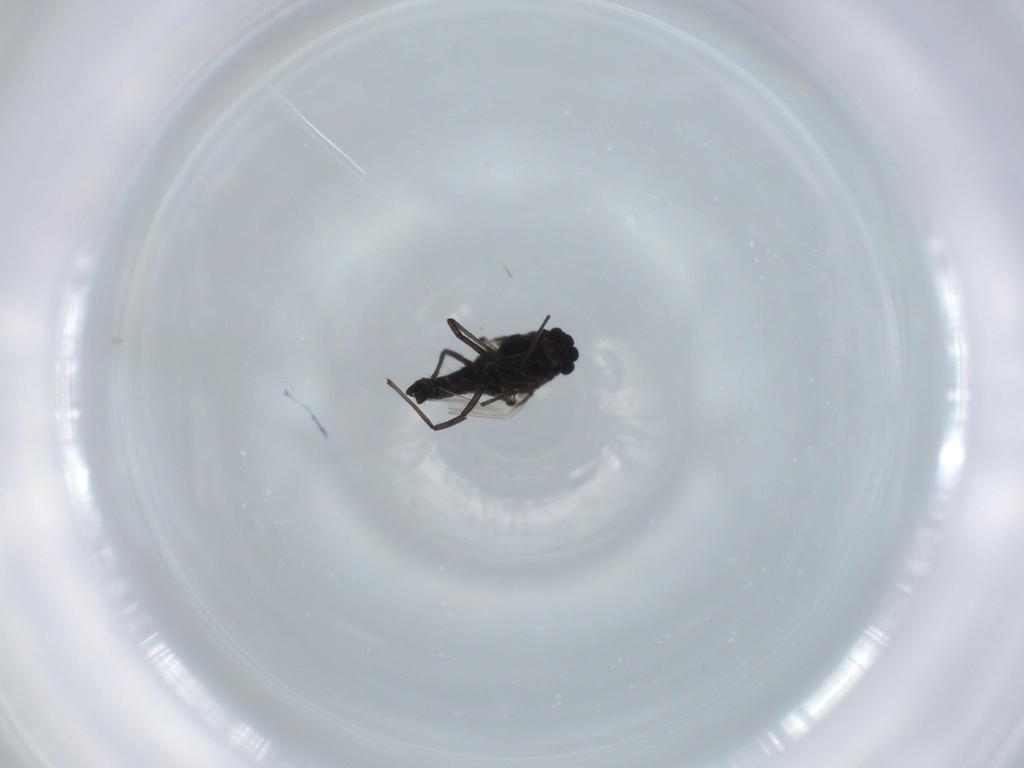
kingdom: Animalia
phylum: Arthropoda
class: Insecta
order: Diptera
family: Chironomidae
